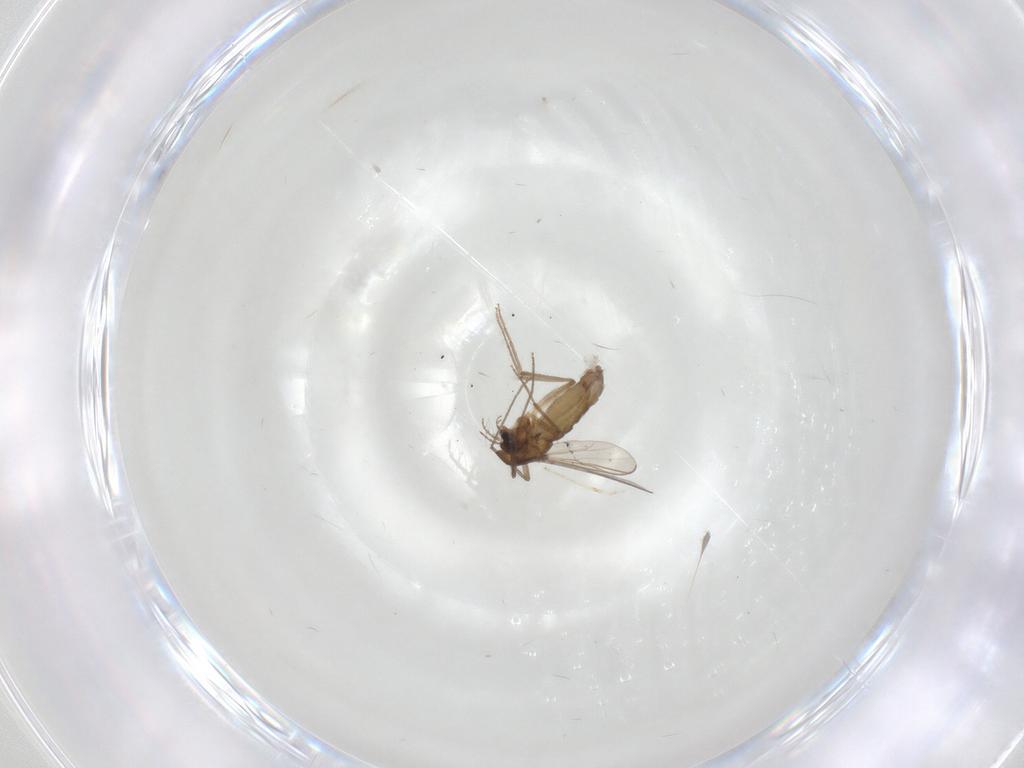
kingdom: Animalia
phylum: Arthropoda
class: Insecta
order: Diptera
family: Chironomidae
